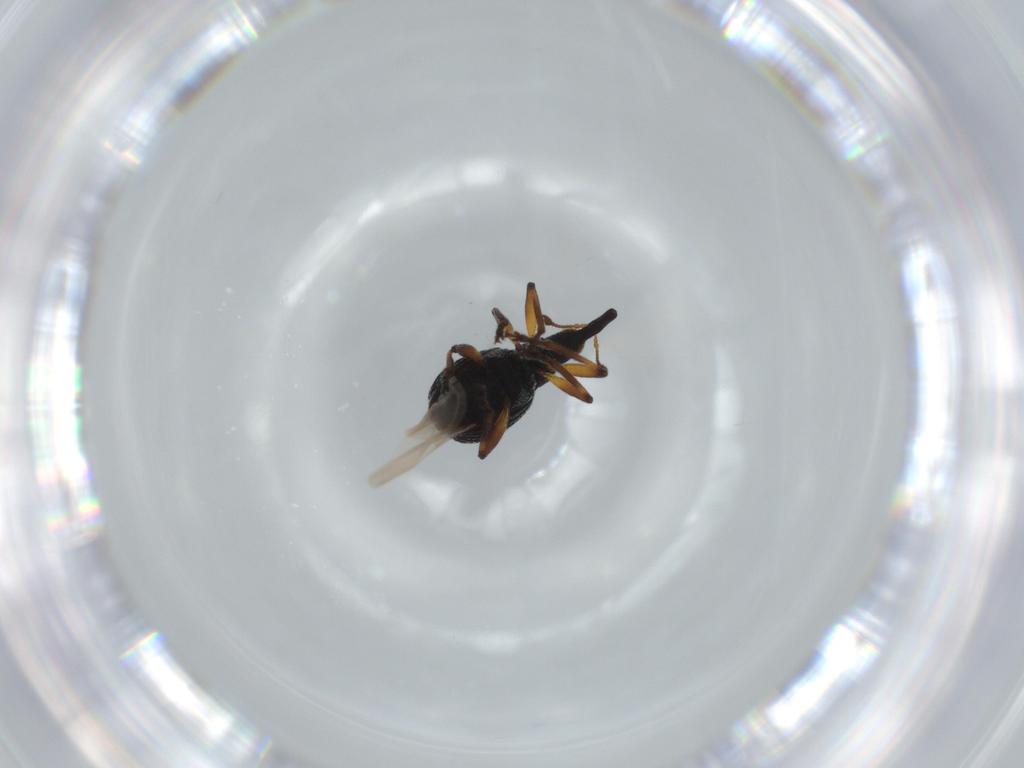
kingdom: Animalia
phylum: Arthropoda
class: Insecta
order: Coleoptera
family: Brentidae
